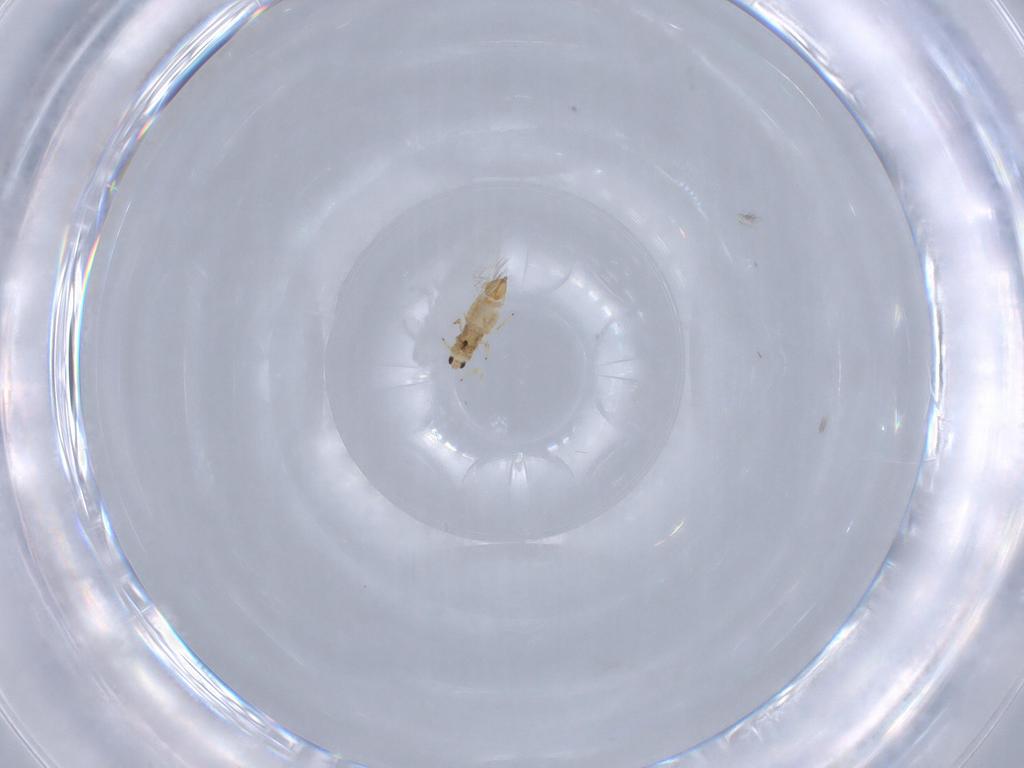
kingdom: Animalia
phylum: Arthropoda
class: Insecta
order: Thysanoptera
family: Thripidae
